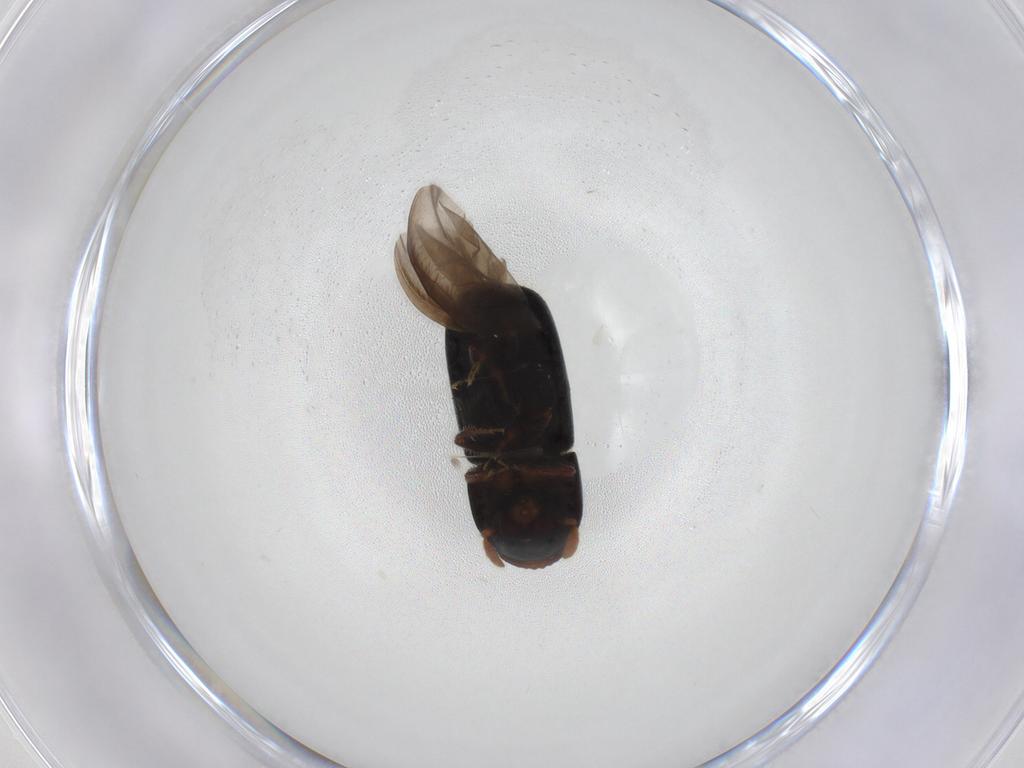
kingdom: Animalia
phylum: Arthropoda
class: Insecta
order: Coleoptera
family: Curculionidae
